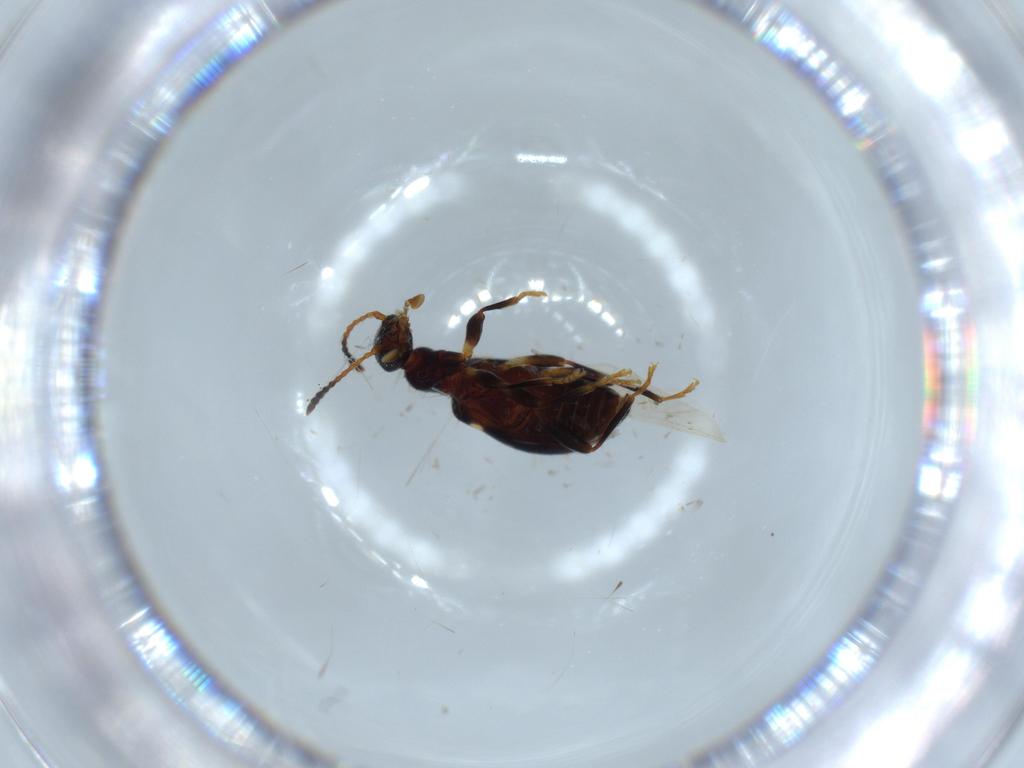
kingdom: Animalia
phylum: Arthropoda
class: Insecta
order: Coleoptera
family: Anthicidae
